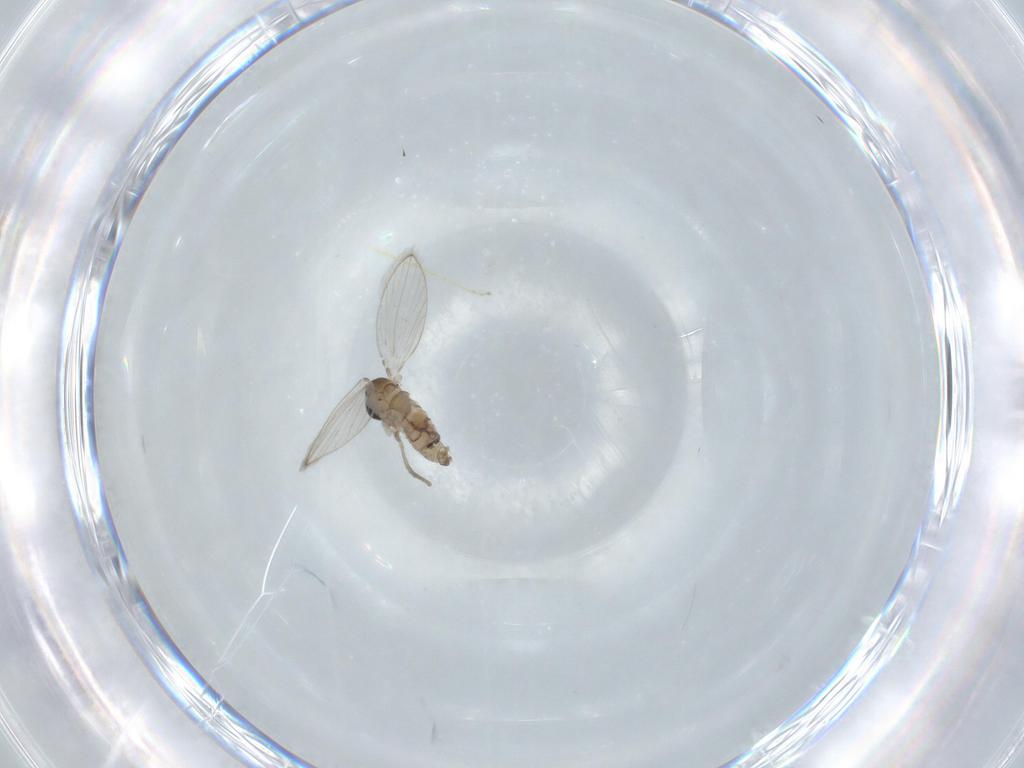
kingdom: Animalia
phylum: Arthropoda
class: Insecta
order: Diptera
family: Psychodidae
